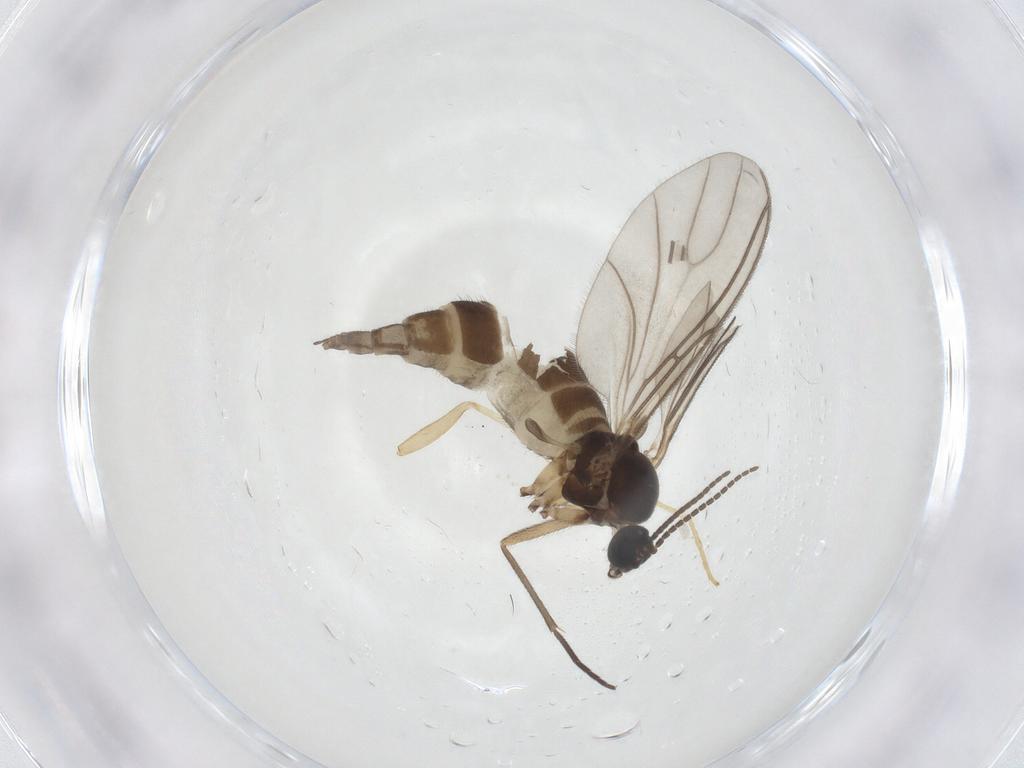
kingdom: Animalia
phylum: Arthropoda
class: Insecta
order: Diptera
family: Sciaridae
